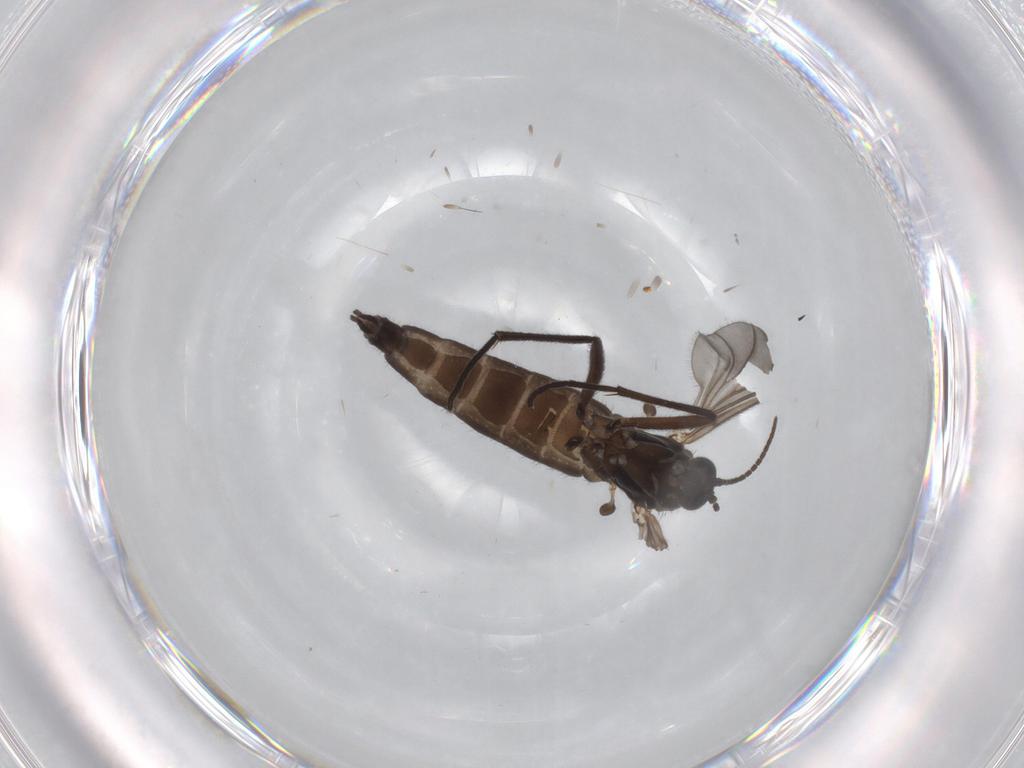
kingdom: Animalia
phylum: Arthropoda
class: Insecta
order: Diptera
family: Sciaridae
